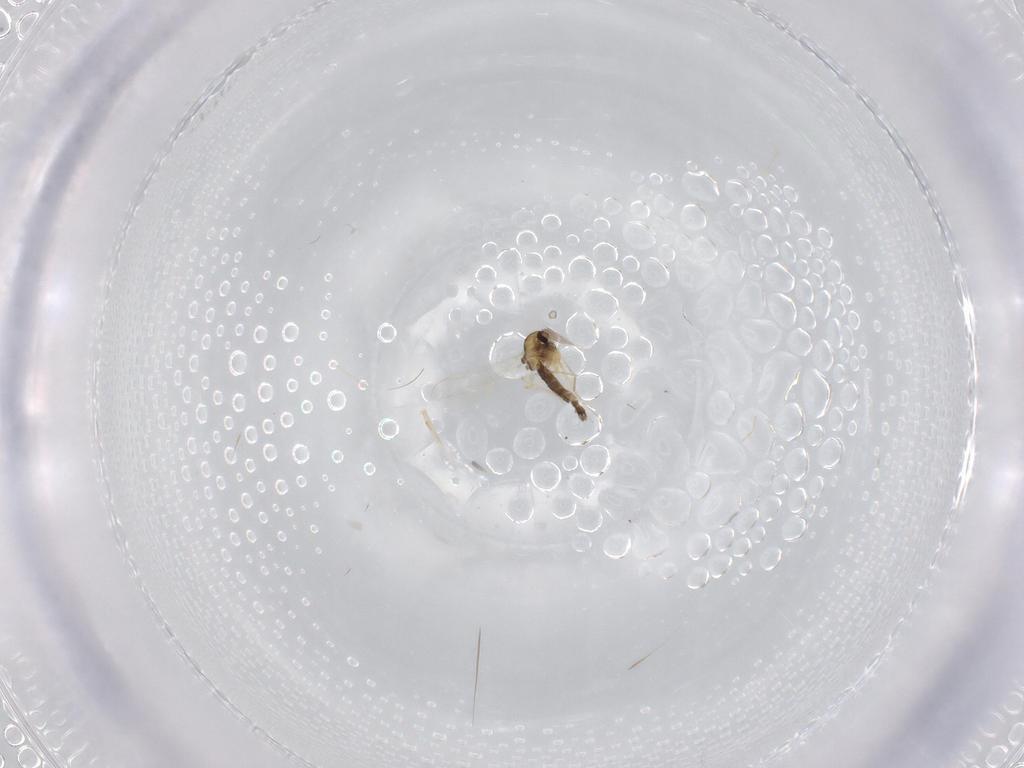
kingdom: Animalia
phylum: Arthropoda
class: Insecta
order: Diptera
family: Chironomidae
